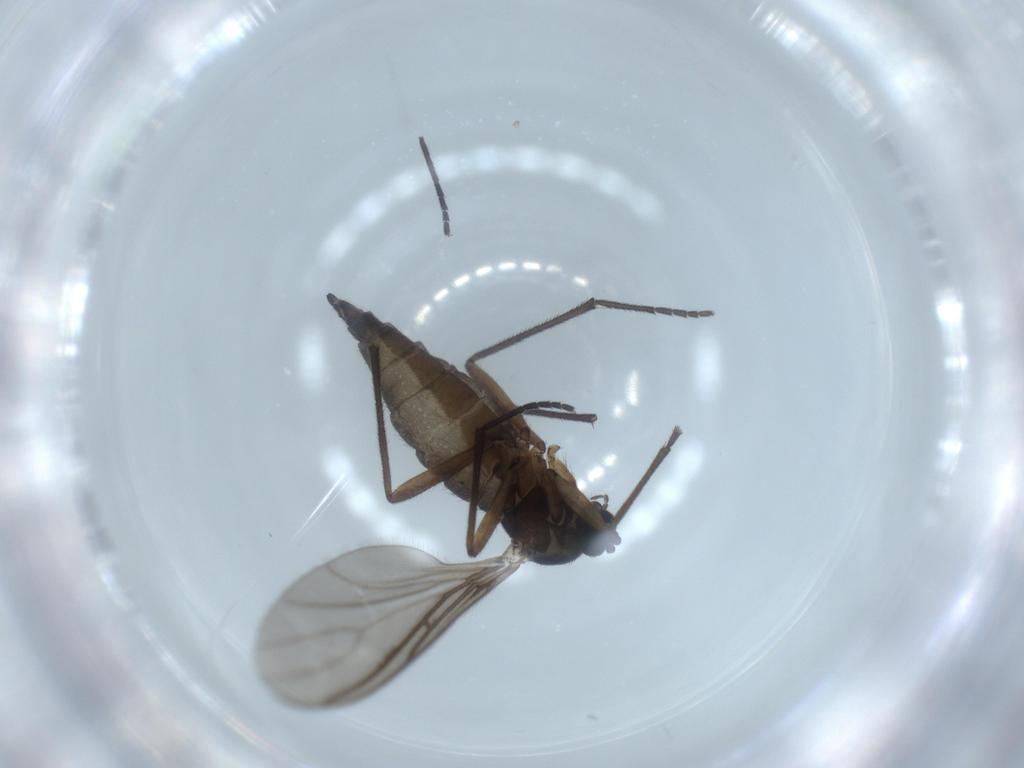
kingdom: Animalia
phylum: Arthropoda
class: Insecta
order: Diptera
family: Sciaridae
